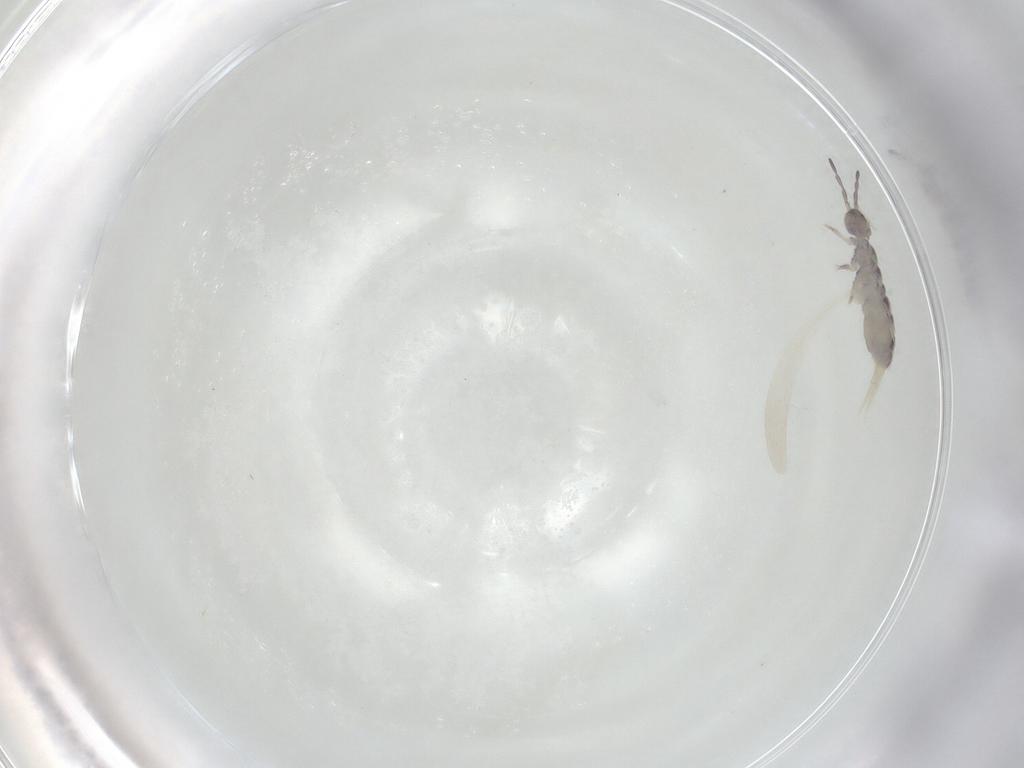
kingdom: Animalia
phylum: Arthropoda
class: Collembola
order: Entomobryomorpha
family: Isotomidae
